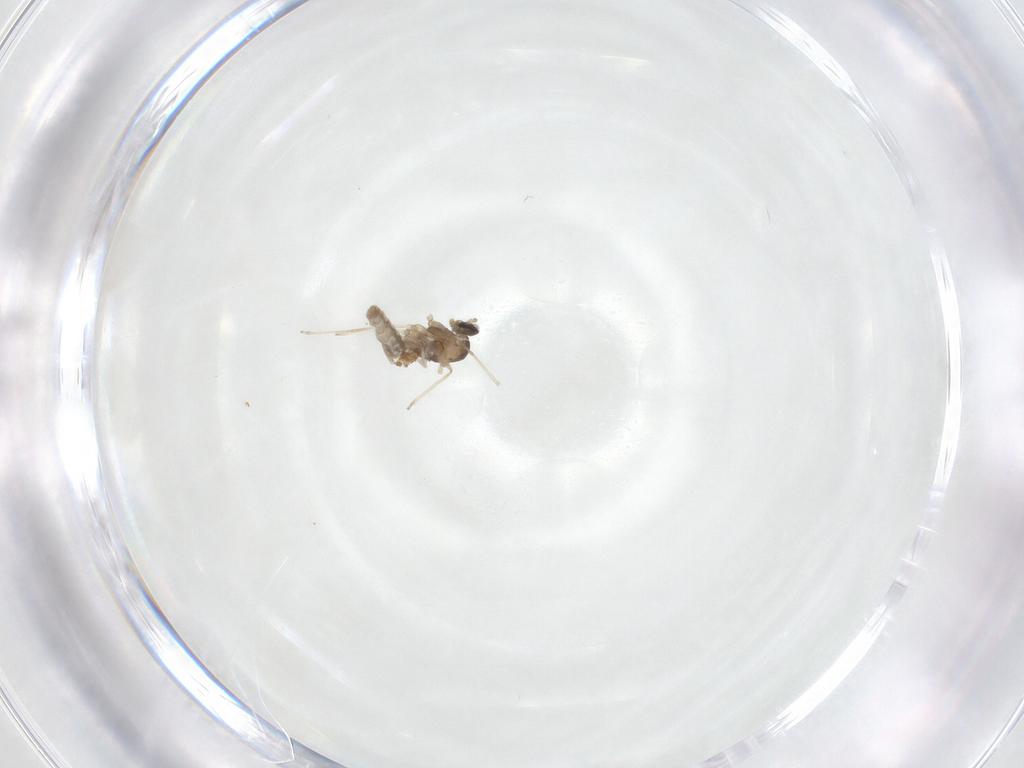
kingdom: Animalia
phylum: Arthropoda
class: Insecta
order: Diptera
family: Cecidomyiidae
